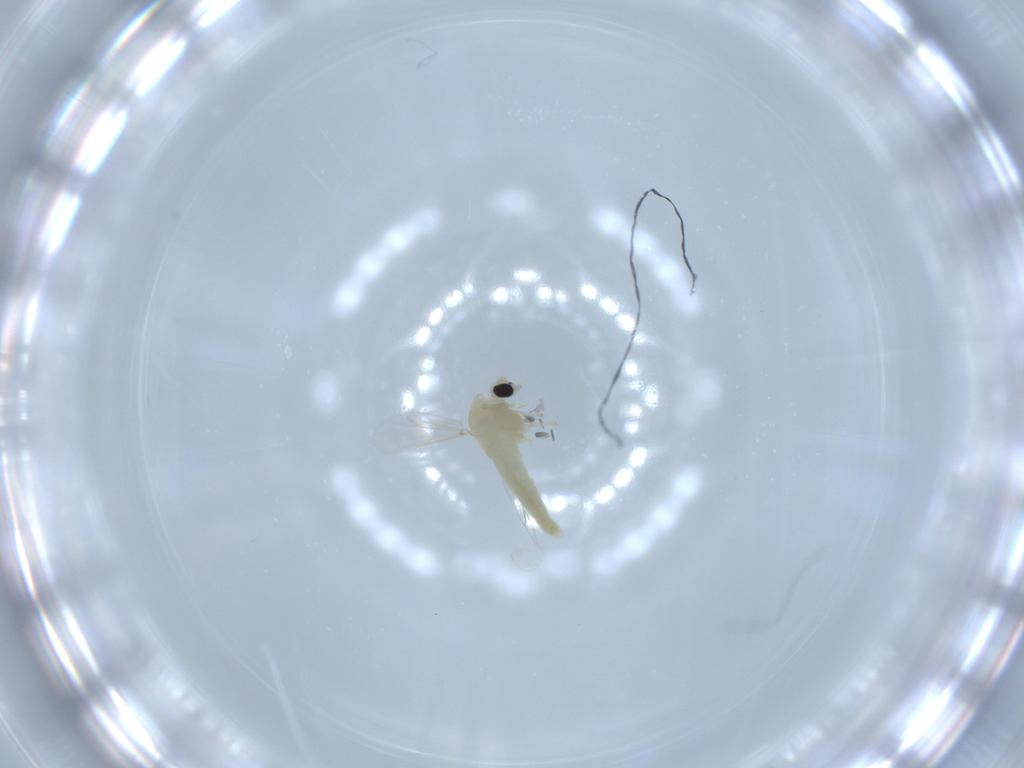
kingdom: Animalia
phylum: Arthropoda
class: Insecta
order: Diptera
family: Chironomidae
